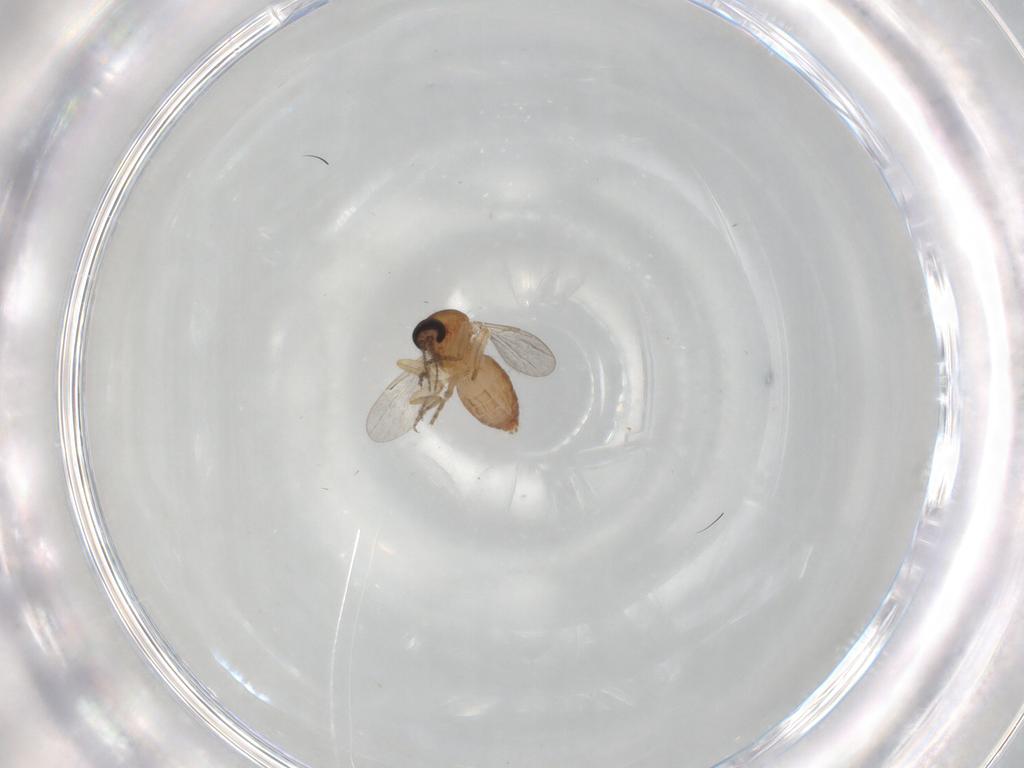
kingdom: Animalia
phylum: Arthropoda
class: Insecta
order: Diptera
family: Ceratopogonidae
